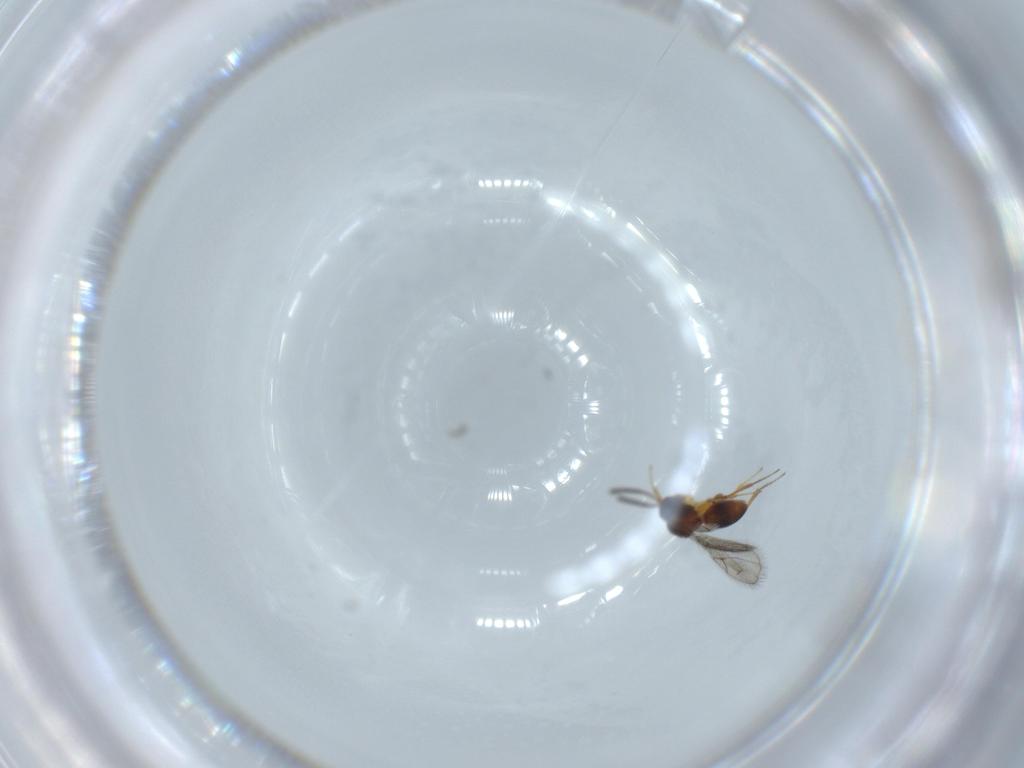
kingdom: Animalia
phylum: Arthropoda
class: Insecta
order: Hymenoptera
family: Figitidae
